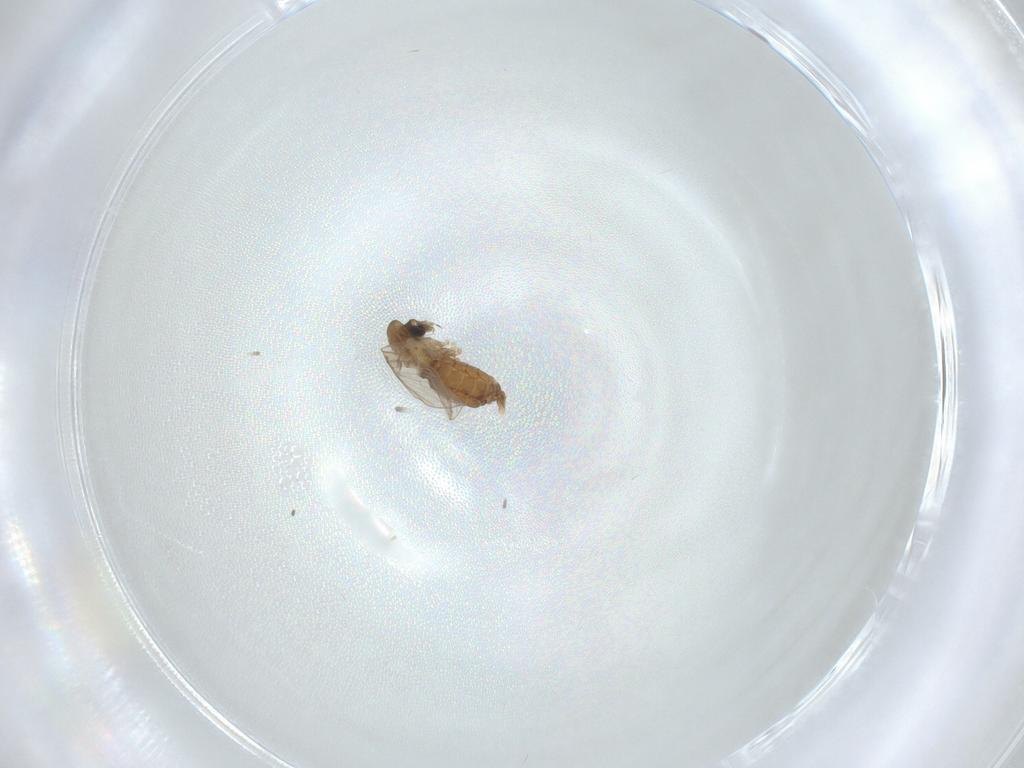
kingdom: Animalia
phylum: Arthropoda
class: Insecta
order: Diptera
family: Psychodidae
